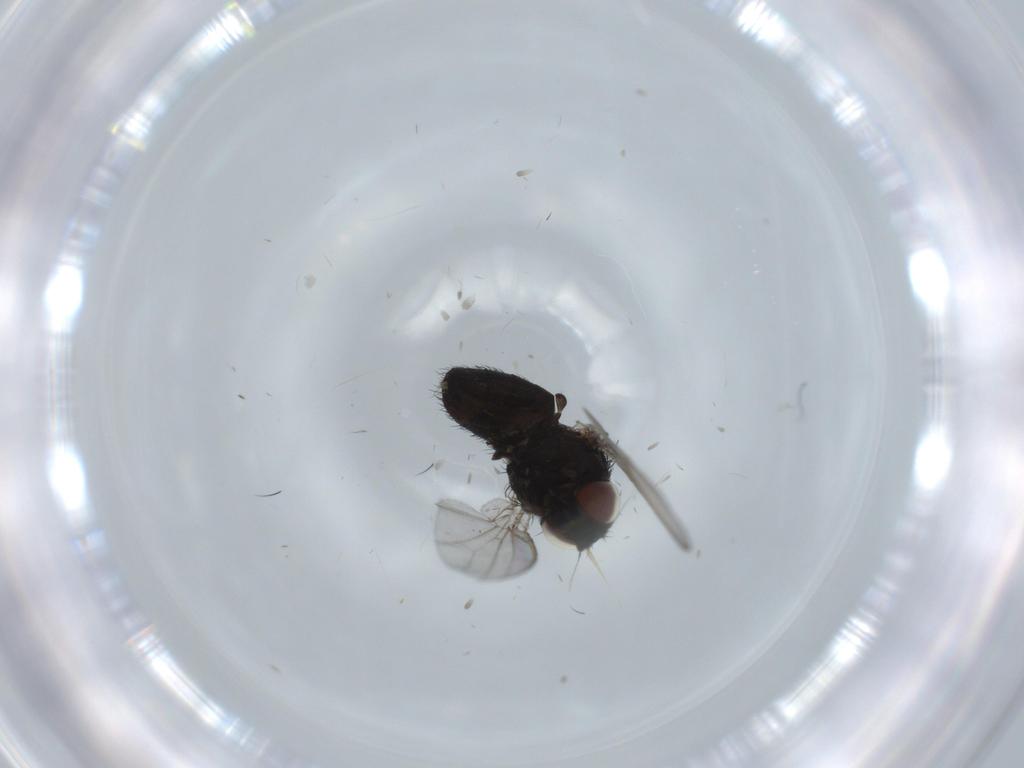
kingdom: Animalia
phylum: Arthropoda
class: Insecta
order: Diptera
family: Milichiidae
